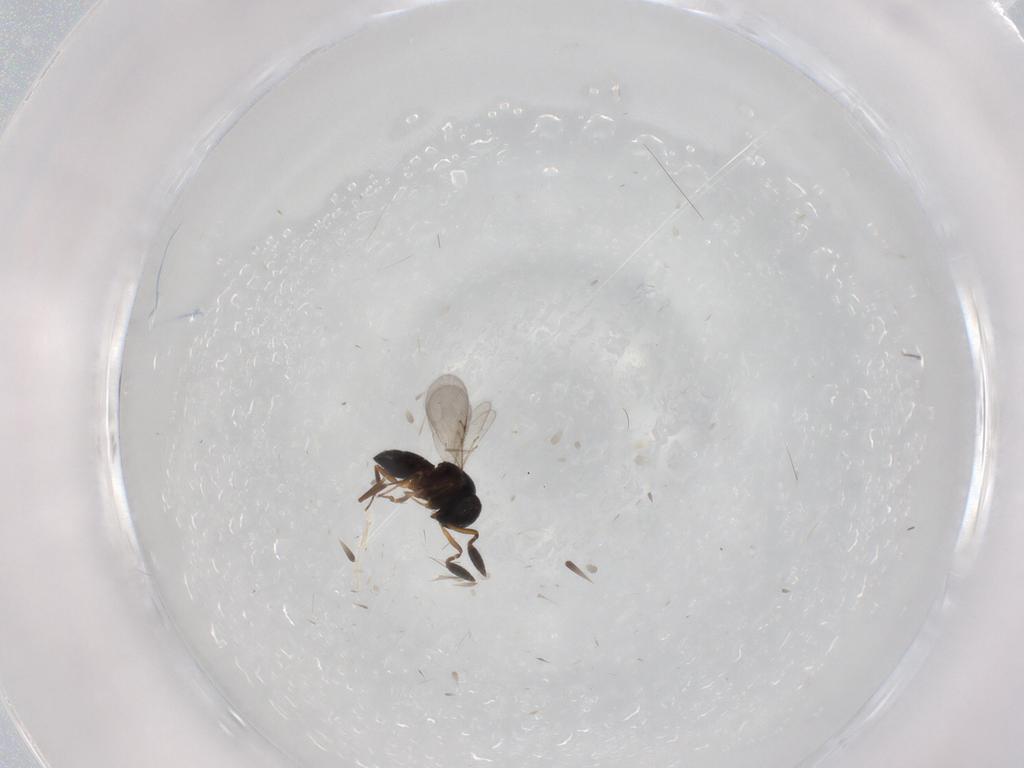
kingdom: Animalia
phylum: Arthropoda
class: Insecta
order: Hymenoptera
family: Scelionidae
